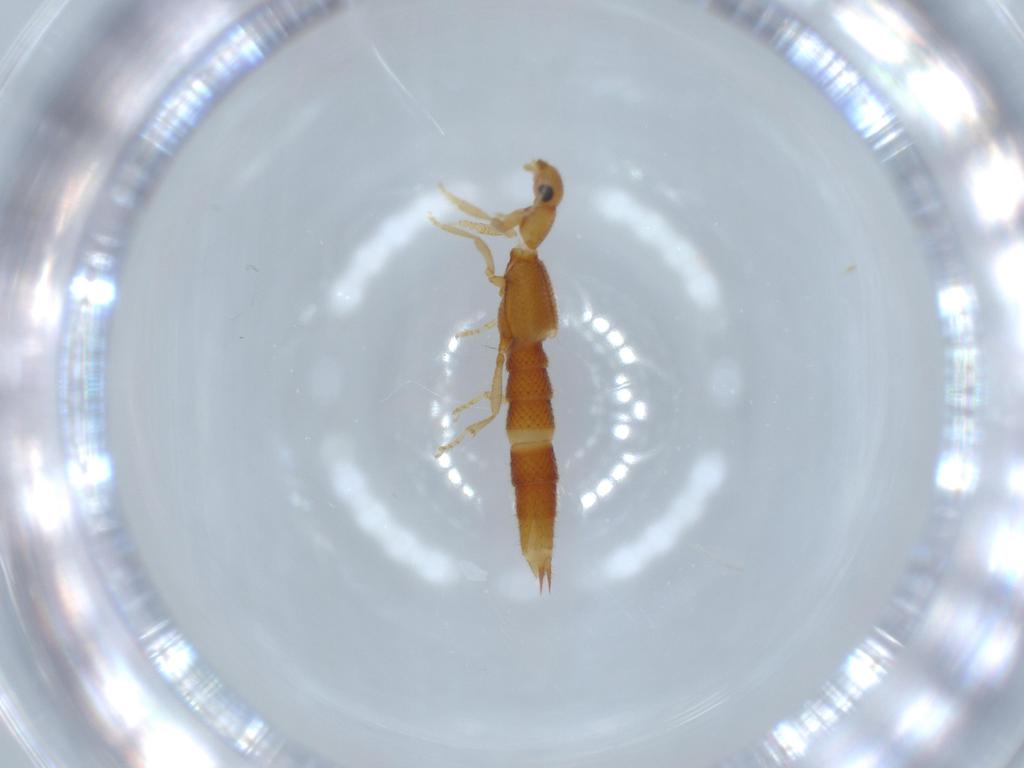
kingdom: Animalia
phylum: Arthropoda
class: Insecta
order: Coleoptera
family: Staphylinidae
